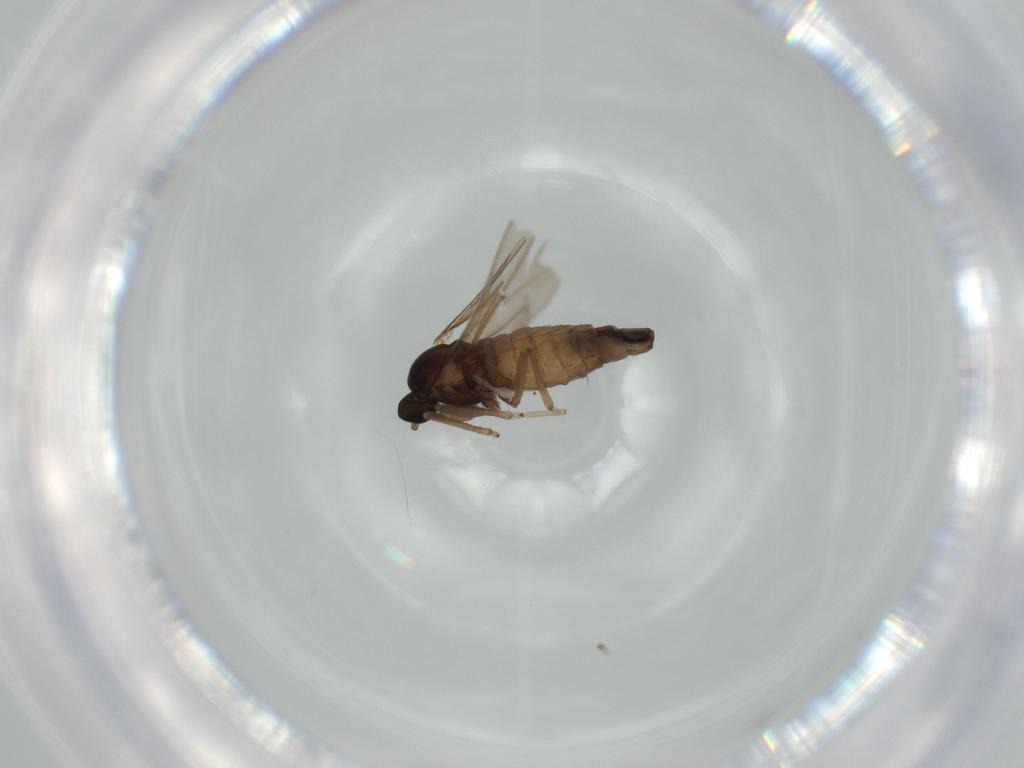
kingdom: Animalia
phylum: Arthropoda
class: Insecta
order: Diptera
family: Cecidomyiidae
